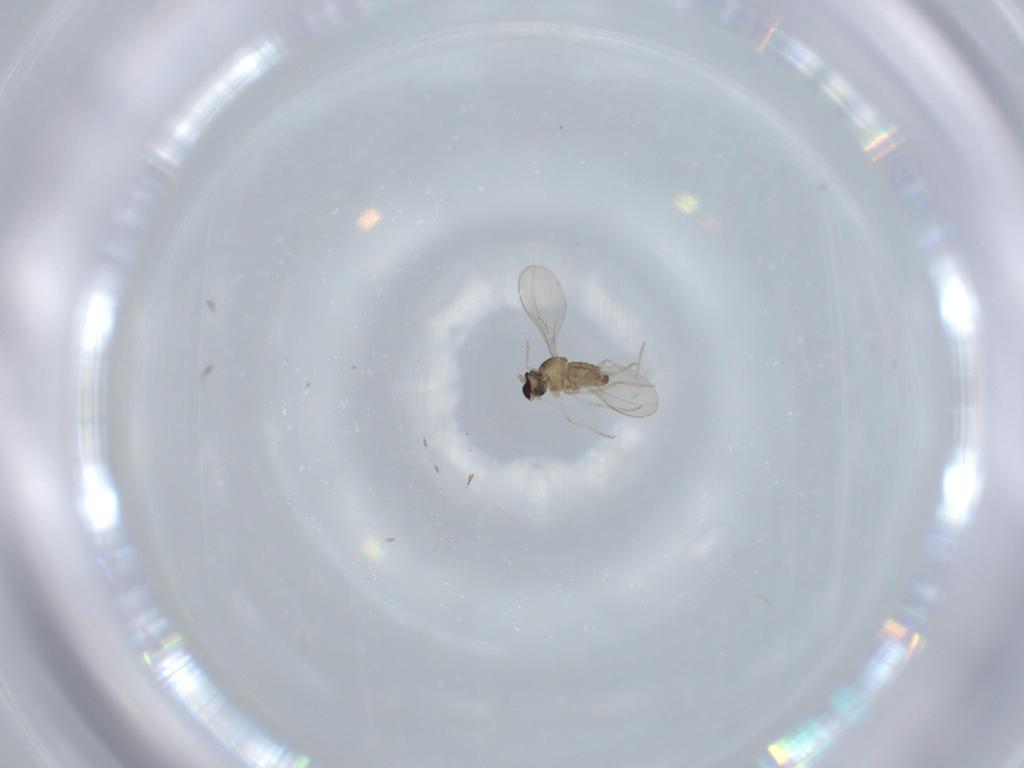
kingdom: Animalia
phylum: Arthropoda
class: Insecta
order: Diptera
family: Cecidomyiidae
